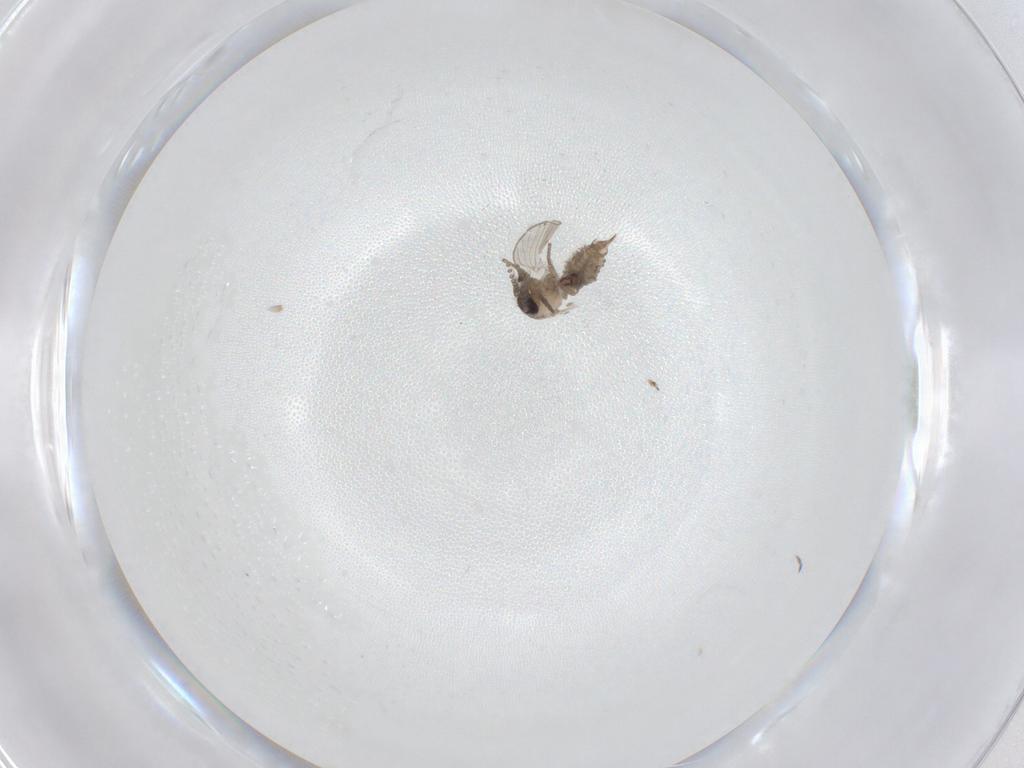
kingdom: Animalia
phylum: Arthropoda
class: Insecta
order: Diptera
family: Psychodidae
